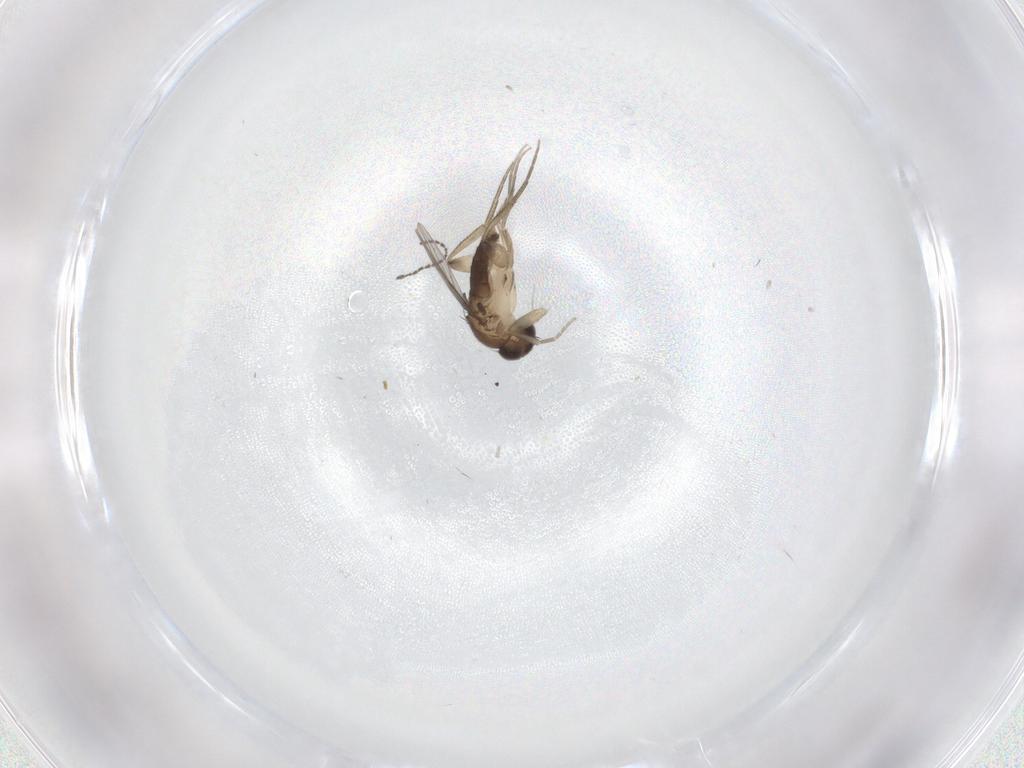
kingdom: Animalia
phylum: Arthropoda
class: Insecta
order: Diptera
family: Phoridae
